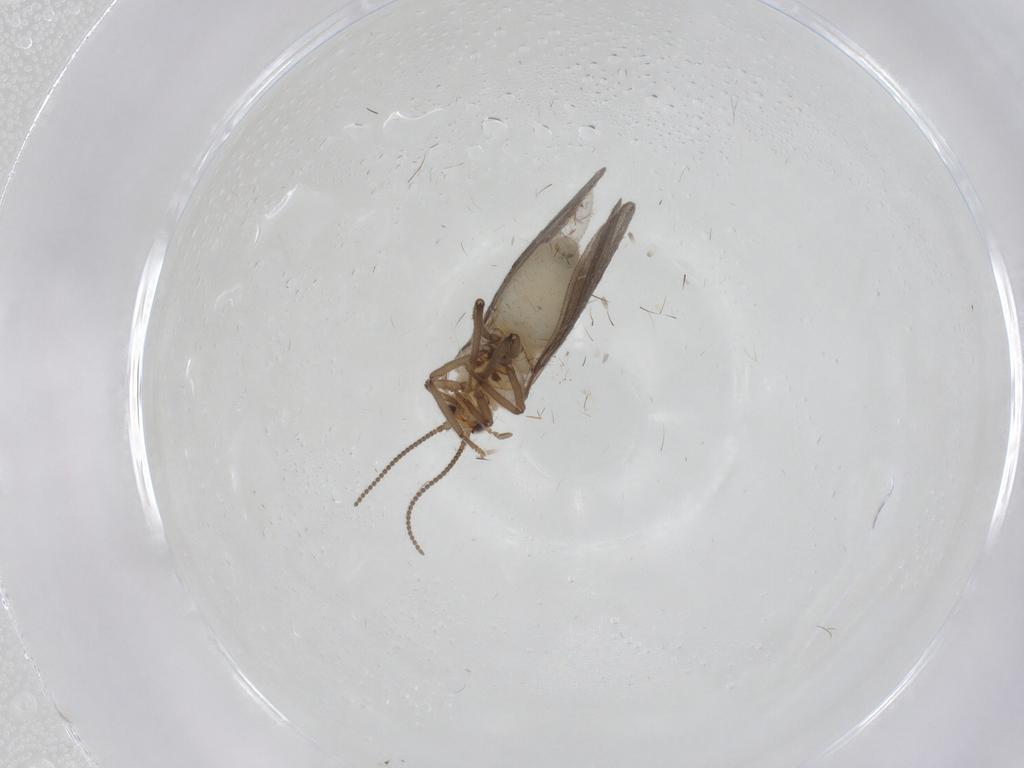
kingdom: Animalia
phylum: Arthropoda
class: Insecta
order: Neuroptera
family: Coniopterygidae
